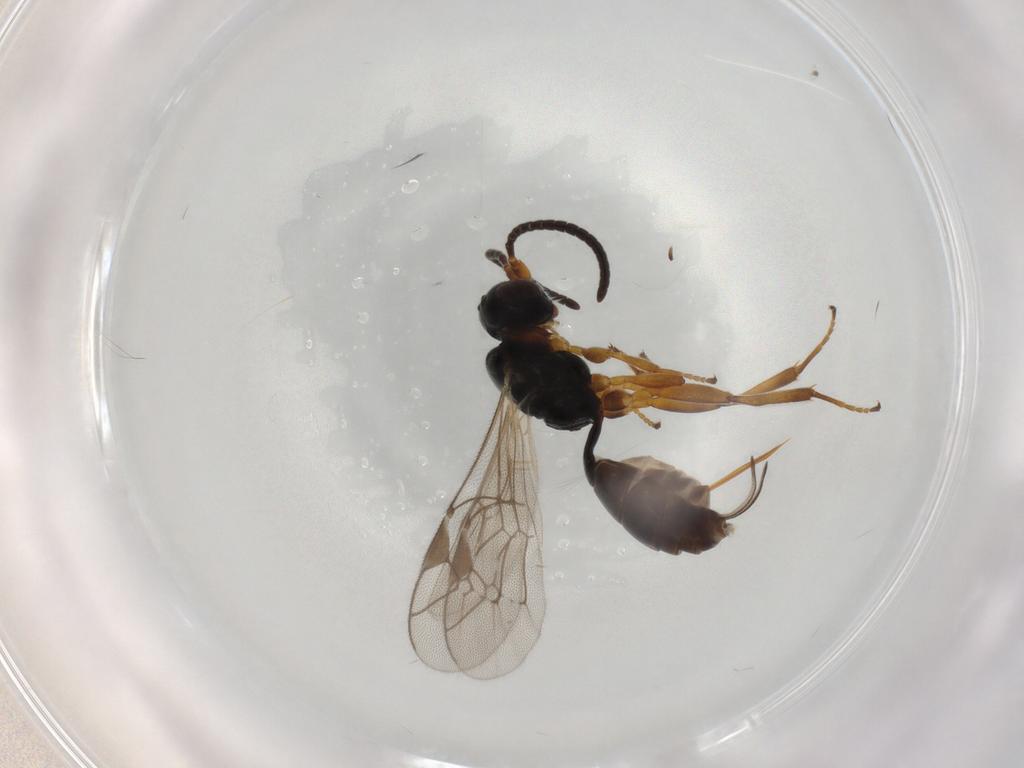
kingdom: Animalia
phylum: Arthropoda
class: Insecta
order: Hymenoptera
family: Ichneumonidae
